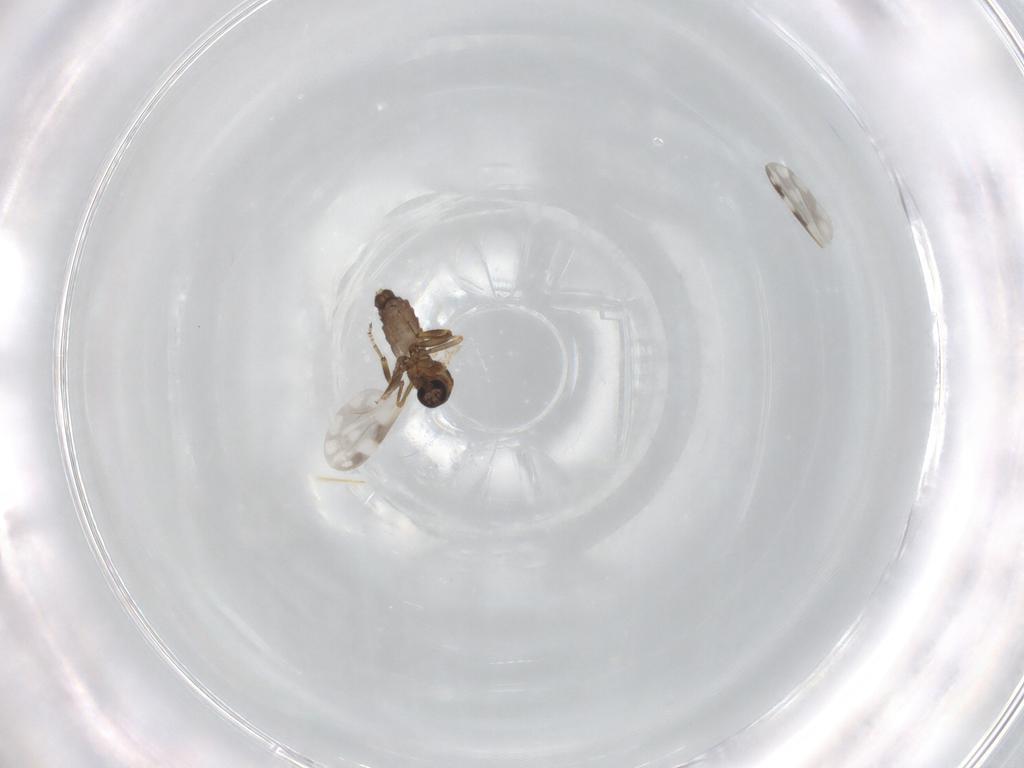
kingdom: Animalia
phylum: Arthropoda
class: Insecta
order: Diptera
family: Ceratopogonidae
